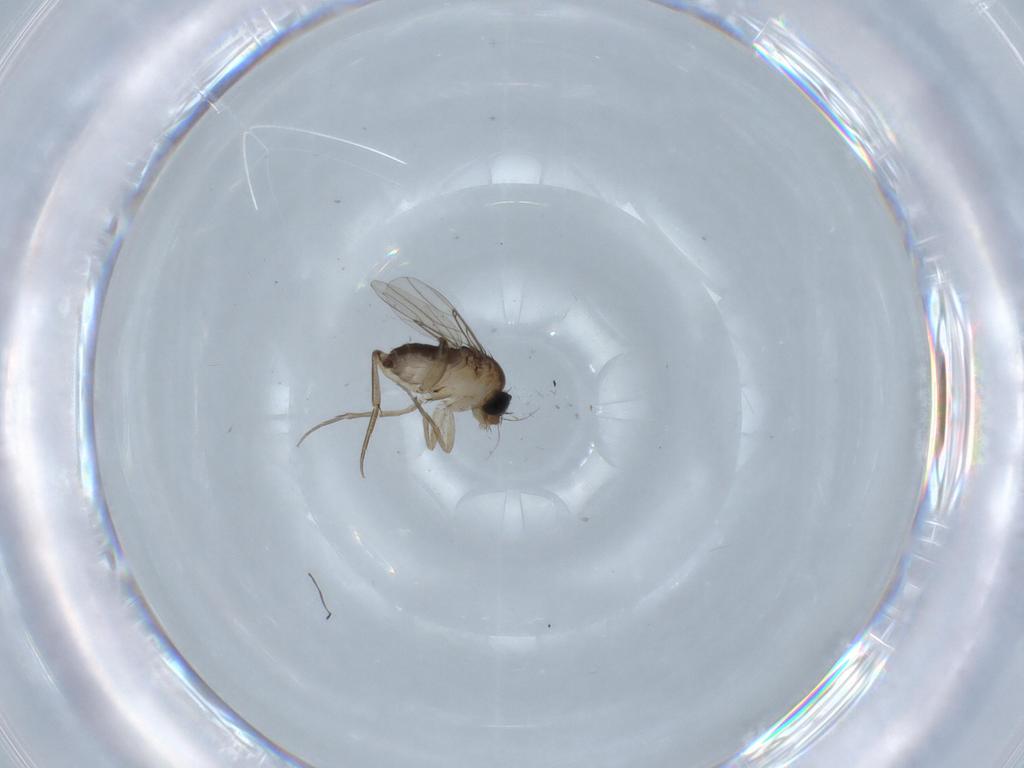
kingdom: Animalia
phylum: Arthropoda
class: Insecta
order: Diptera
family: Phoridae
